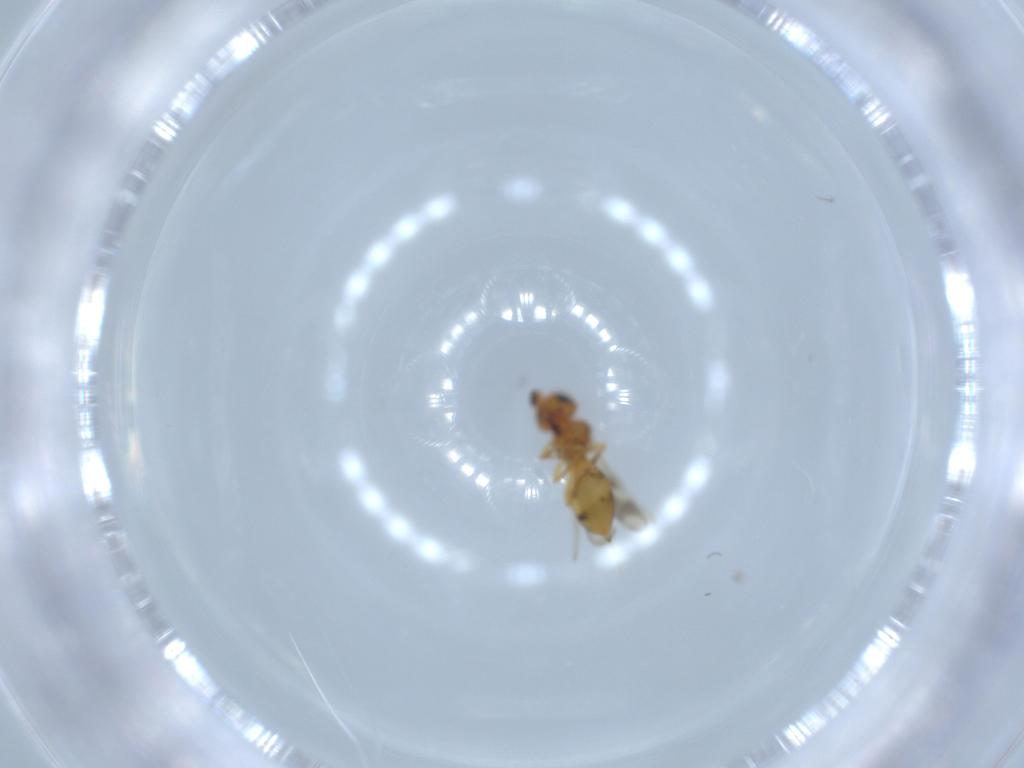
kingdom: Animalia
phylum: Arthropoda
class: Insecta
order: Hymenoptera
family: Scelionidae
